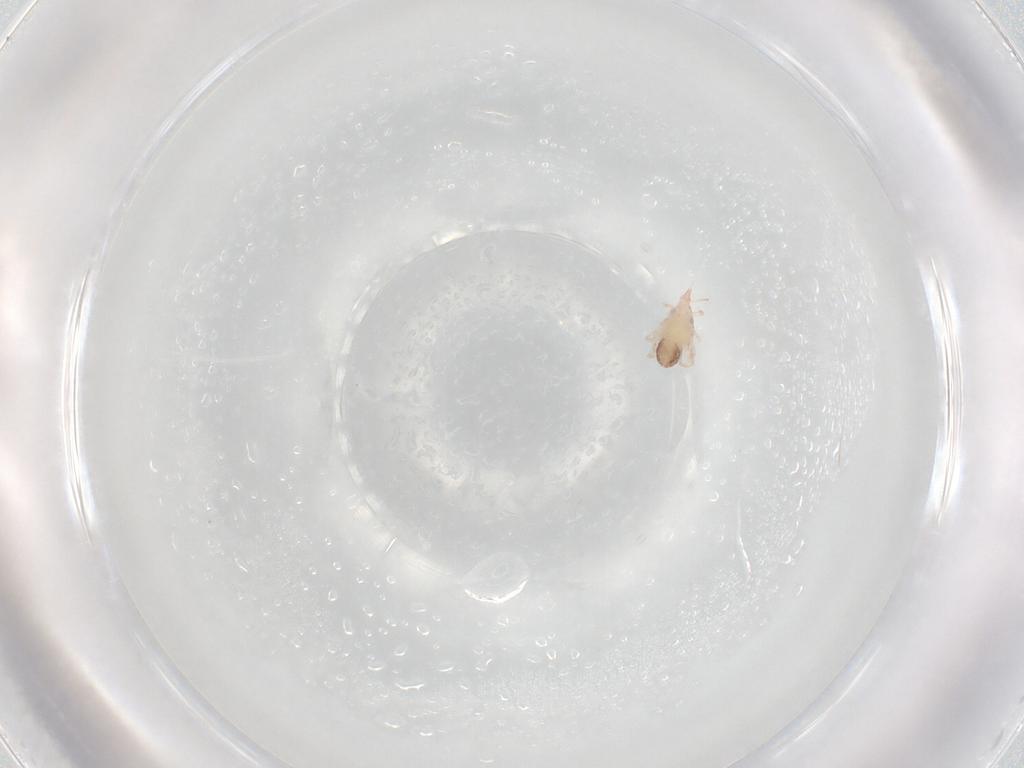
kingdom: Animalia
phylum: Arthropoda
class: Insecta
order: Diptera
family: Chironomidae
